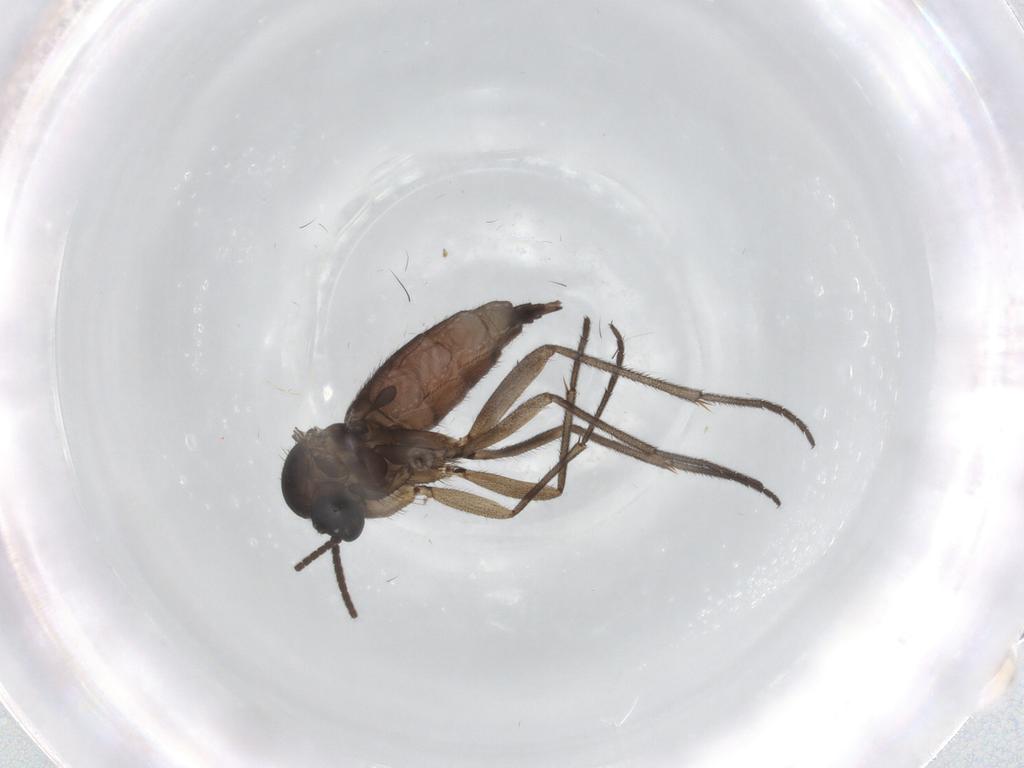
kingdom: Animalia
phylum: Arthropoda
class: Insecta
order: Diptera
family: Sciaridae
